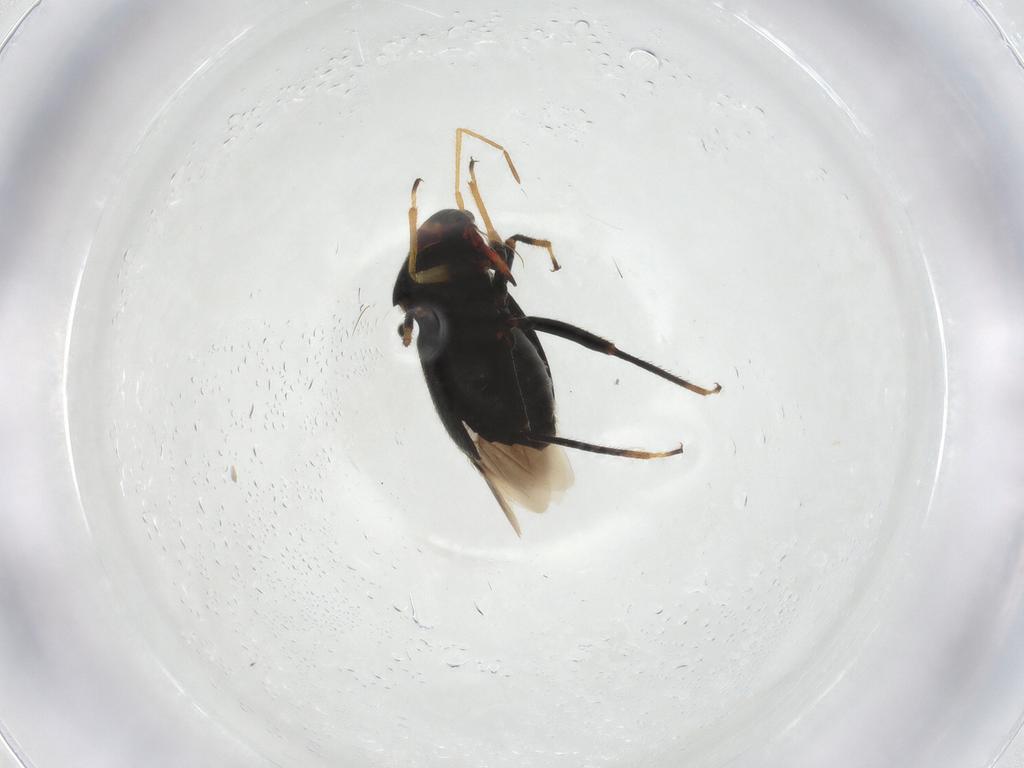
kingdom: Animalia
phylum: Arthropoda
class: Insecta
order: Hemiptera
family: Miridae
